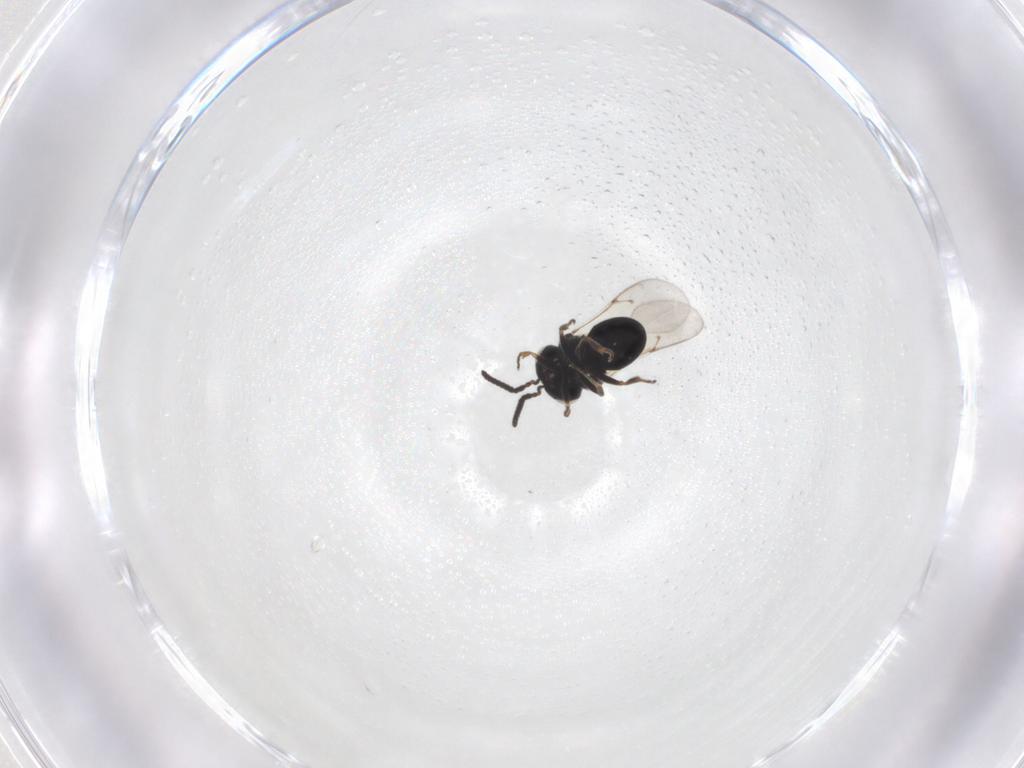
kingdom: Animalia
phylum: Arthropoda
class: Insecta
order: Hymenoptera
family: Scelionidae
